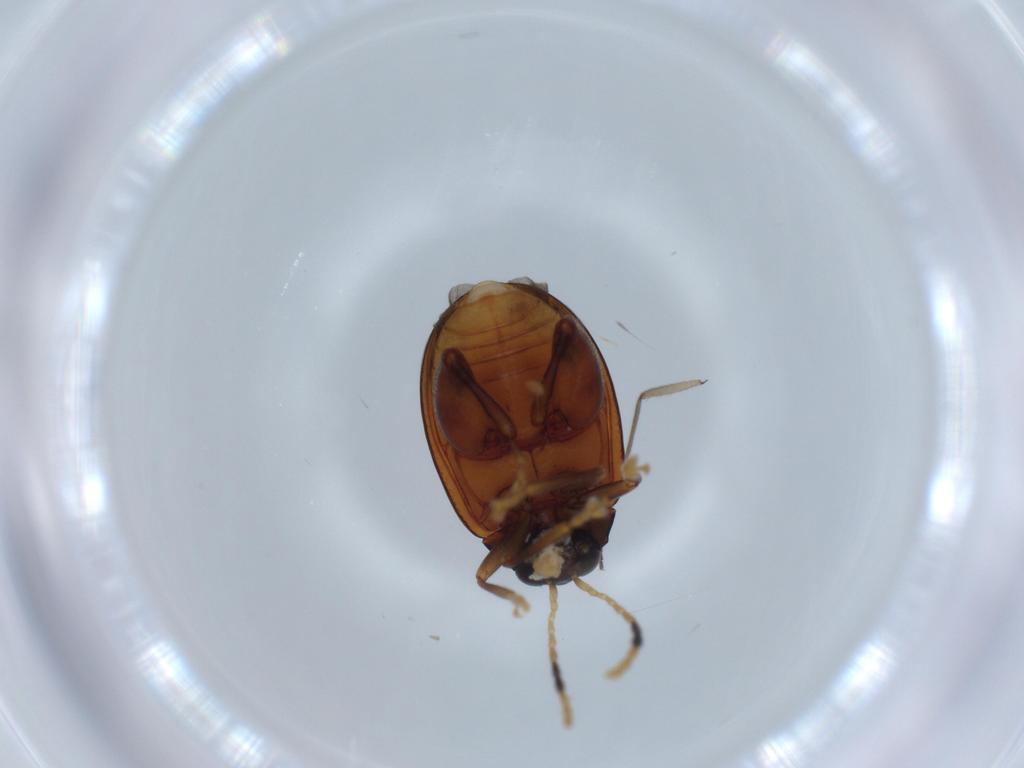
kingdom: Animalia
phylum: Arthropoda
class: Insecta
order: Coleoptera
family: Chrysomelidae
